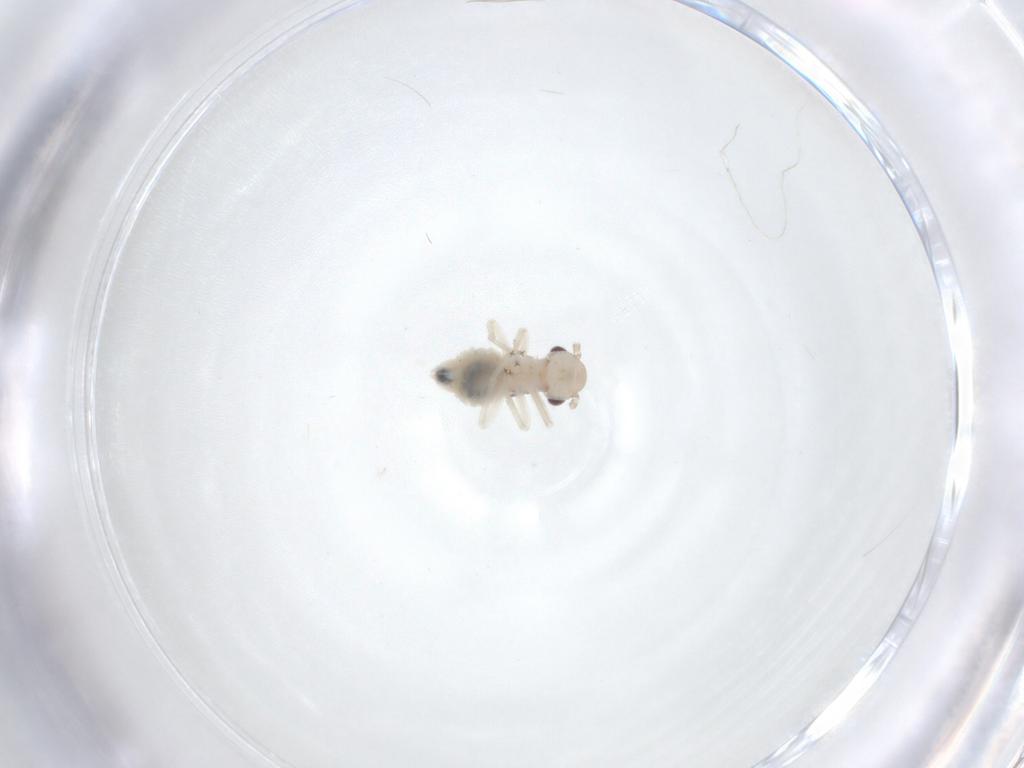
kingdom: Animalia
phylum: Arthropoda
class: Insecta
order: Psocodea
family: Amphipsocidae
